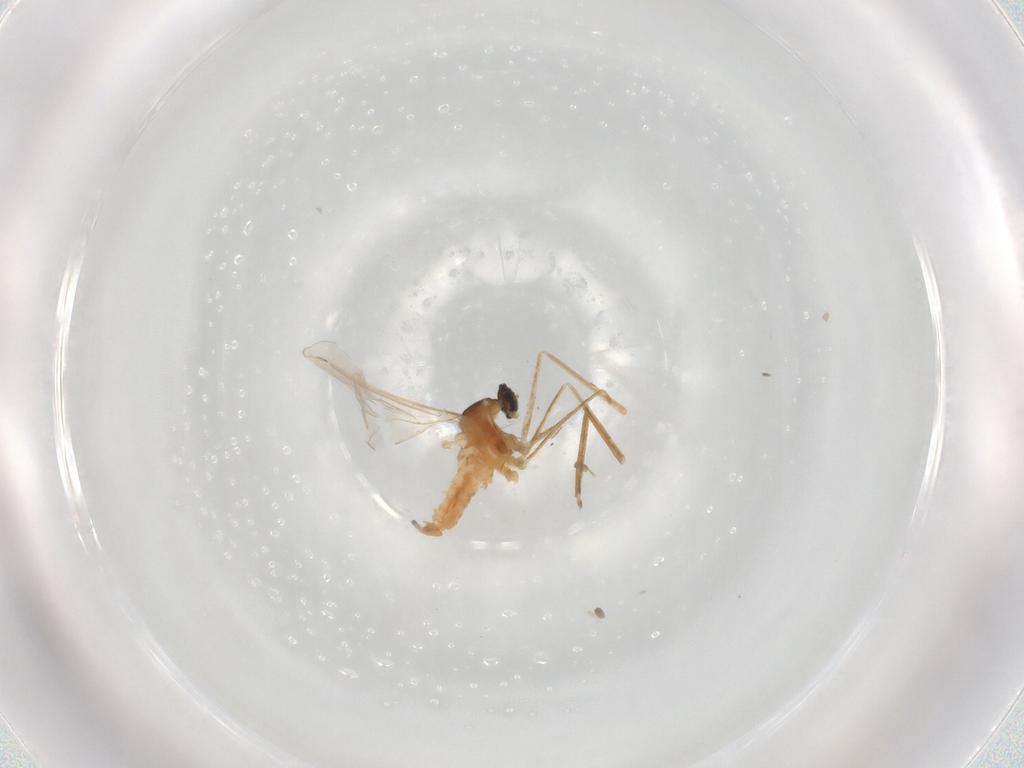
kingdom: Animalia
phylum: Arthropoda
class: Insecta
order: Diptera
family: Cecidomyiidae
